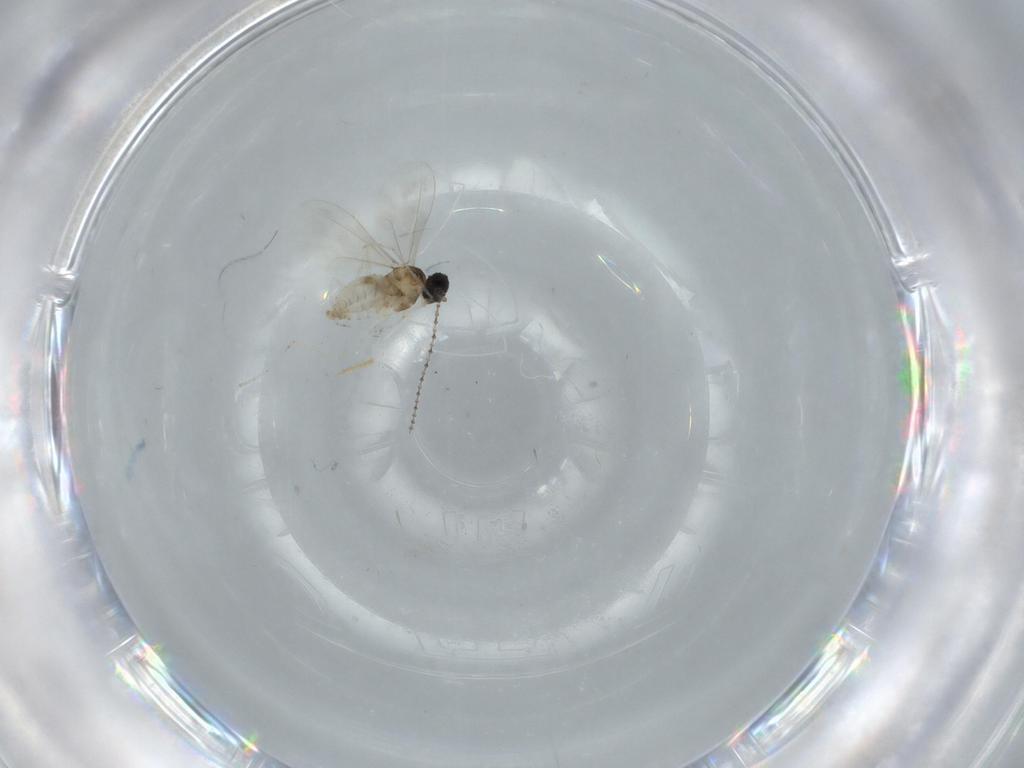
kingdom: Animalia
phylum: Arthropoda
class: Insecta
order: Diptera
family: Cecidomyiidae
